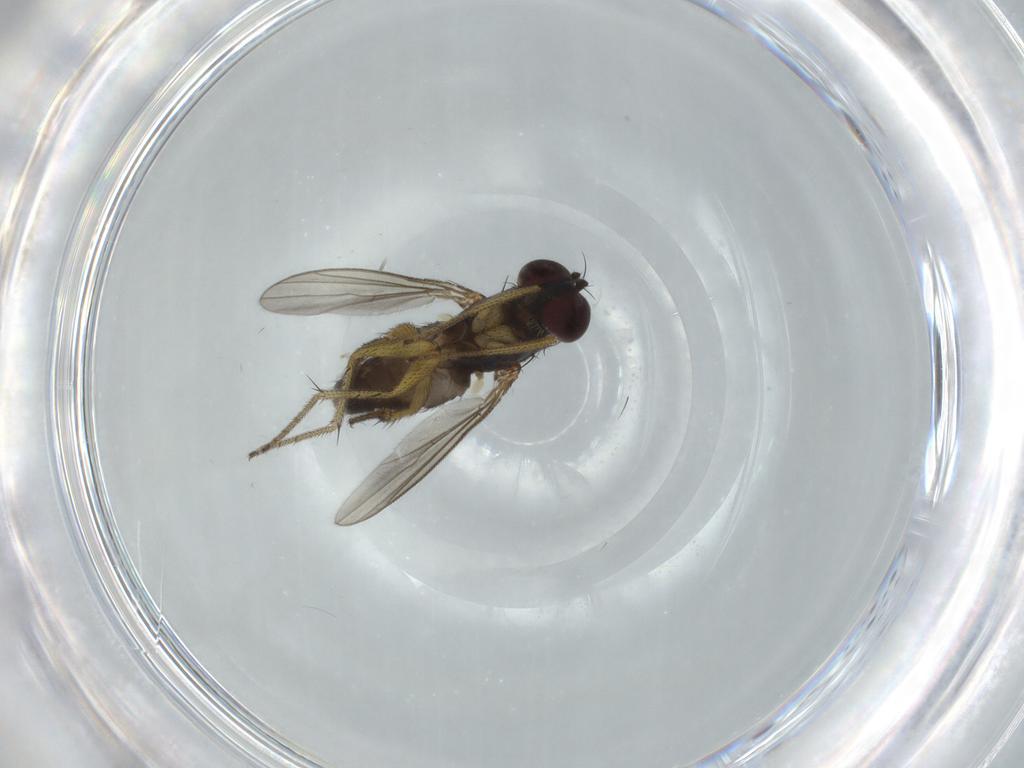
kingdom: Animalia
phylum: Arthropoda
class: Insecta
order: Diptera
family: Dolichopodidae
